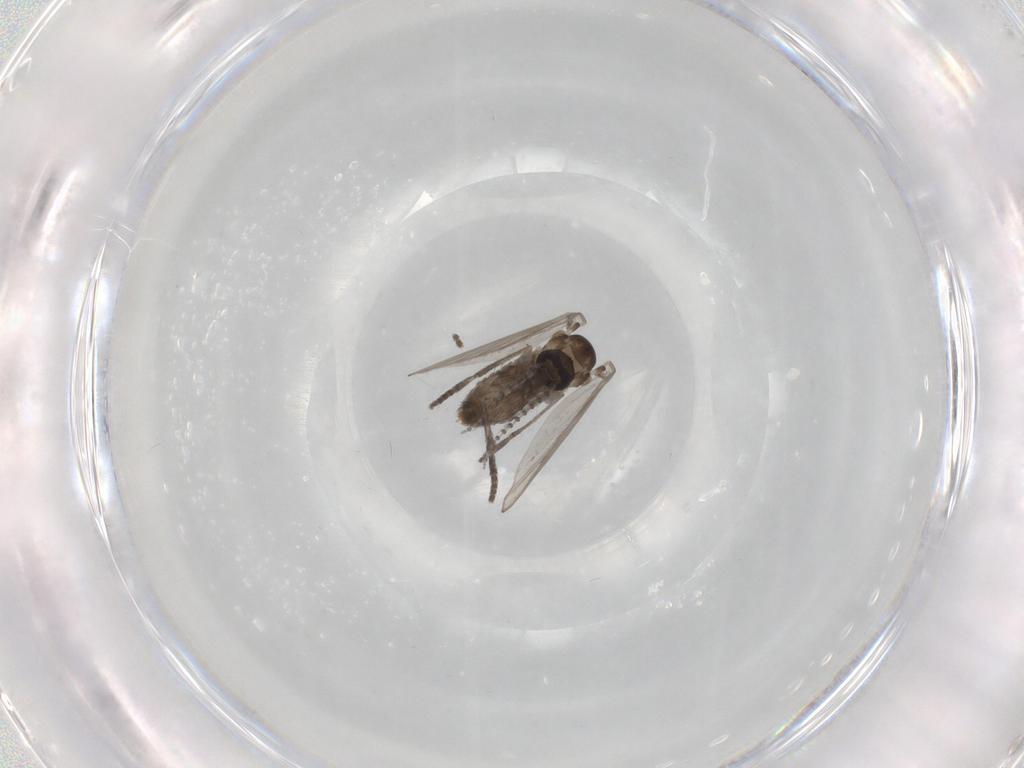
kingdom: Animalia
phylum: Arthropoda
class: Insecta
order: Diptera
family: Psychodidae
